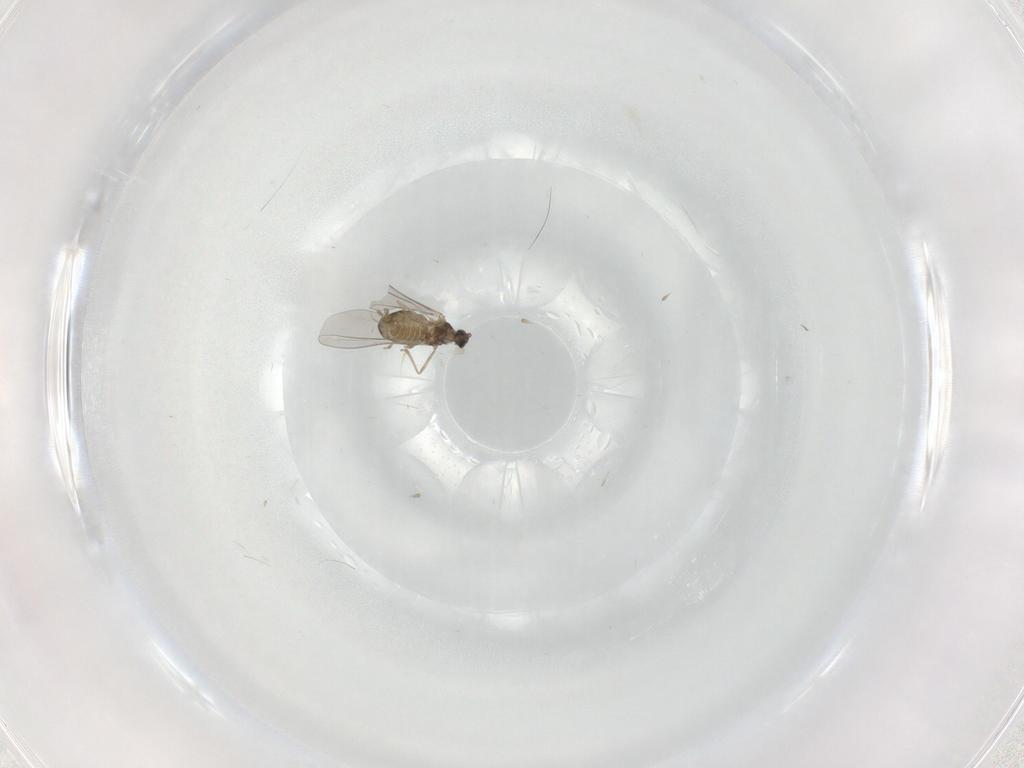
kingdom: Animalia
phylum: Arthropoda
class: Insecta
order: Diptera
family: Cecidomyiidae
